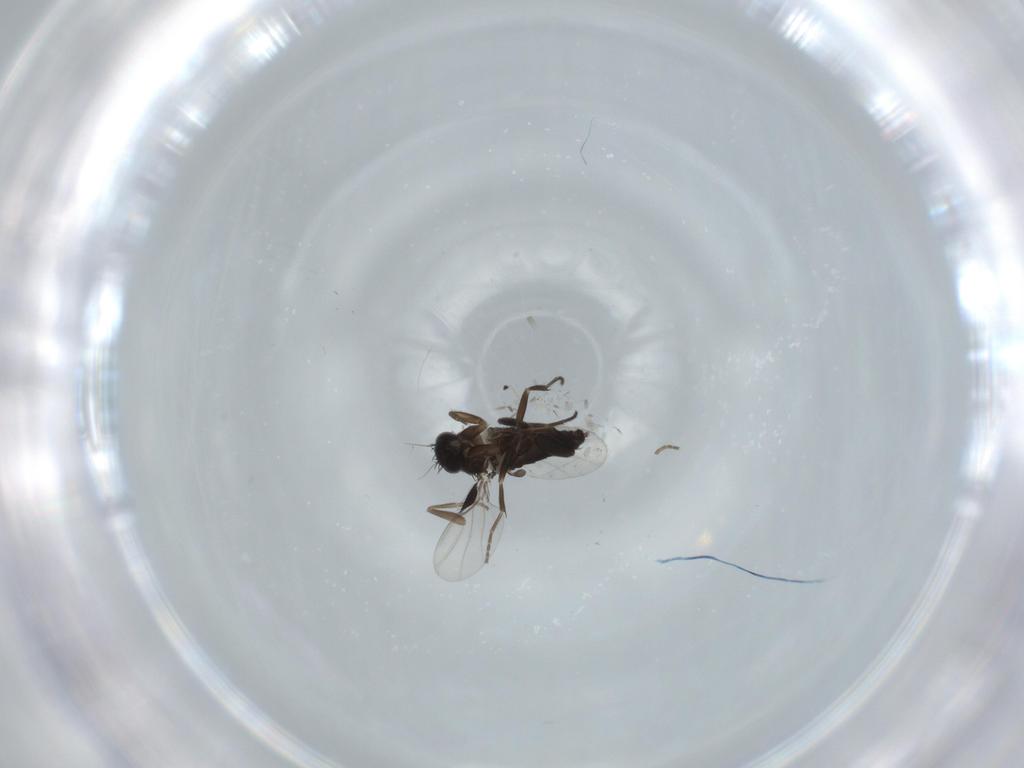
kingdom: Animalia
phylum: Arthropoda
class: Insecta
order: Diptera
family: Phoridae
